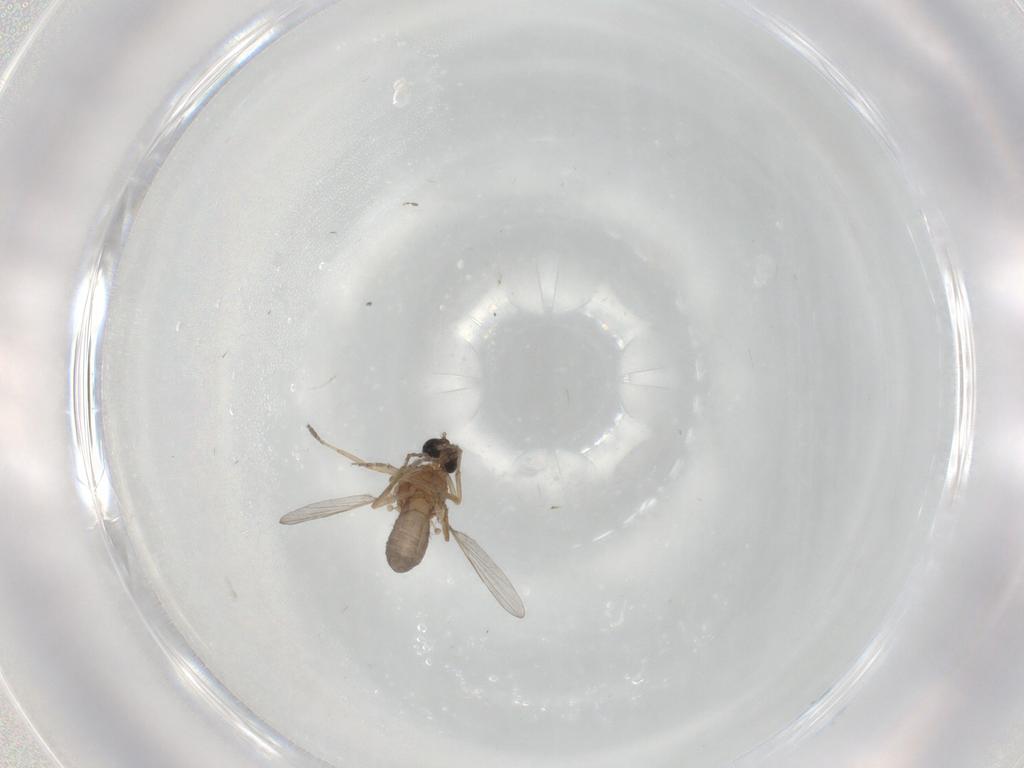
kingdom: Animalia
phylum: Arthropoda
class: Insecta
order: Diptera
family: Ceratopogonidae
